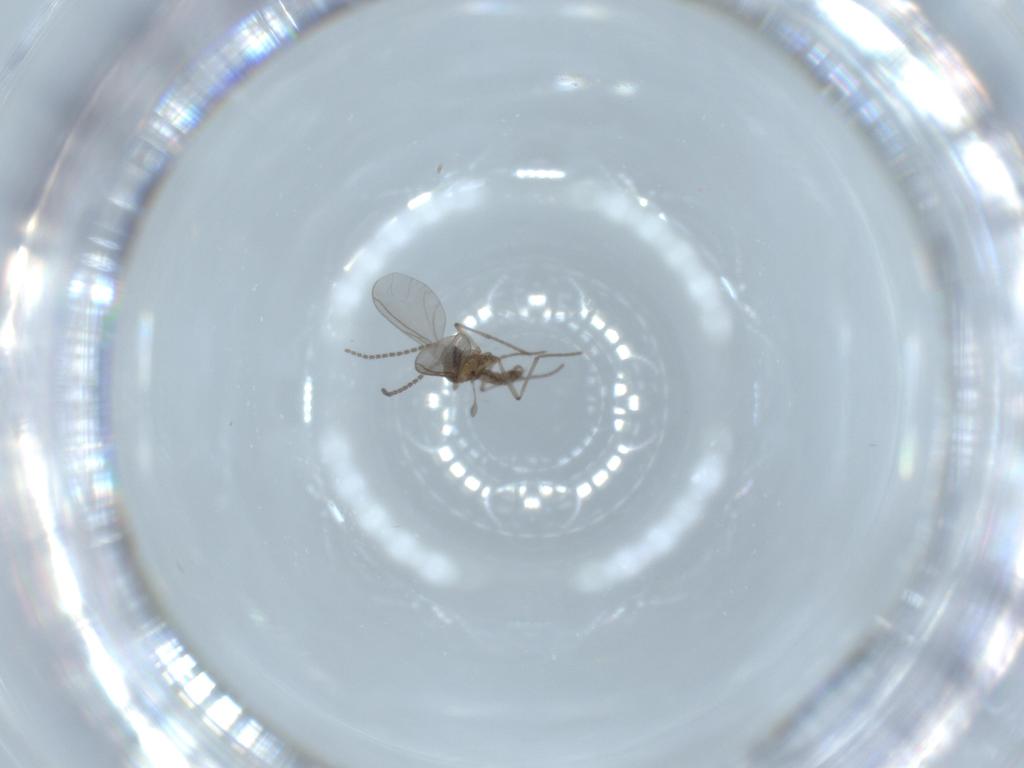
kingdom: Animalia
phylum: Arthropoda
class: Insecta
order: Diptera
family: Sciaridae
